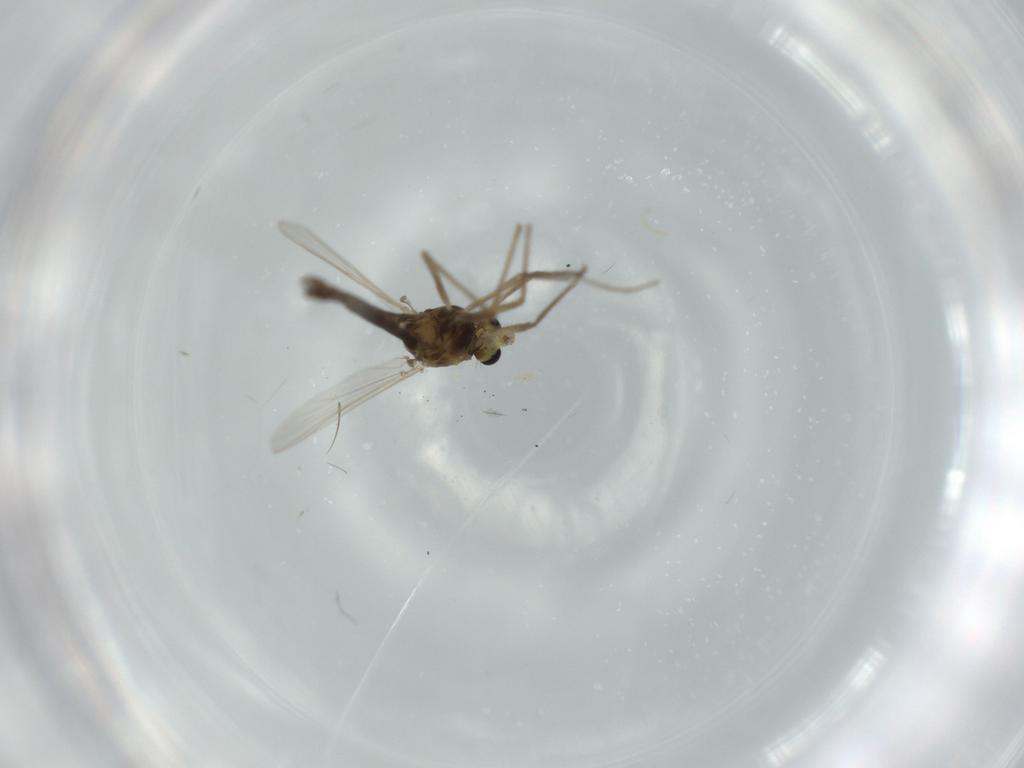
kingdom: Animalia
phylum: Arthropoda
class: Insecta
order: Diptera
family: Chironomidae
